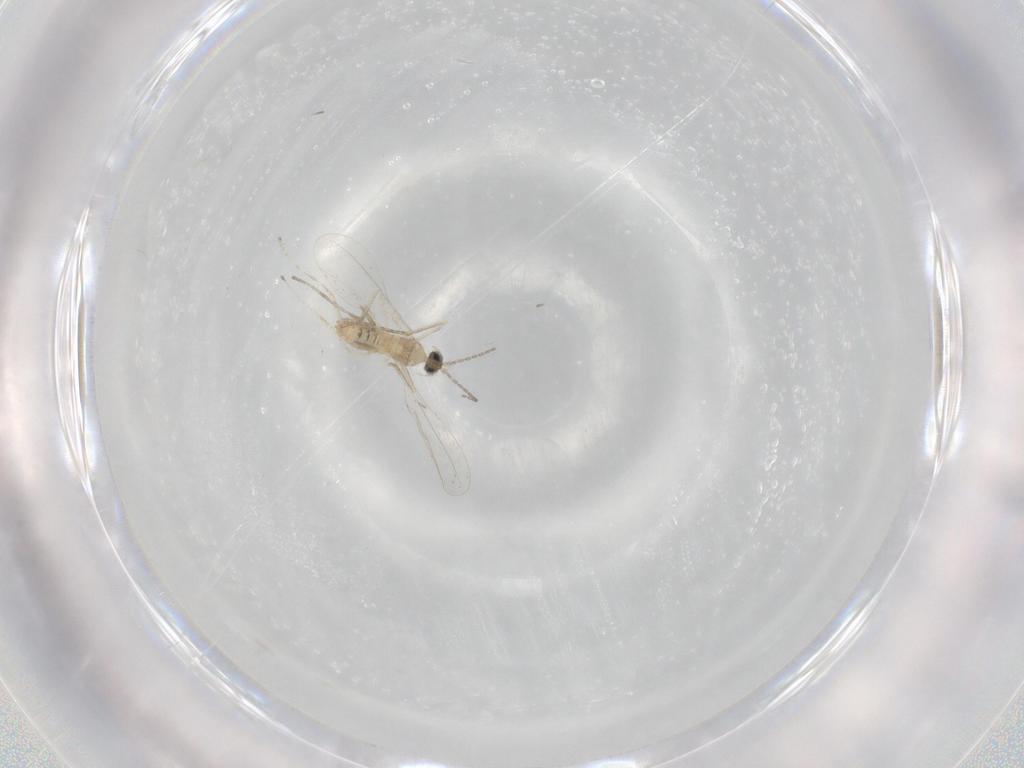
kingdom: Animalia
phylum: Arthropoda
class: Insecta
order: Diptera
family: Cecidomyiidae
